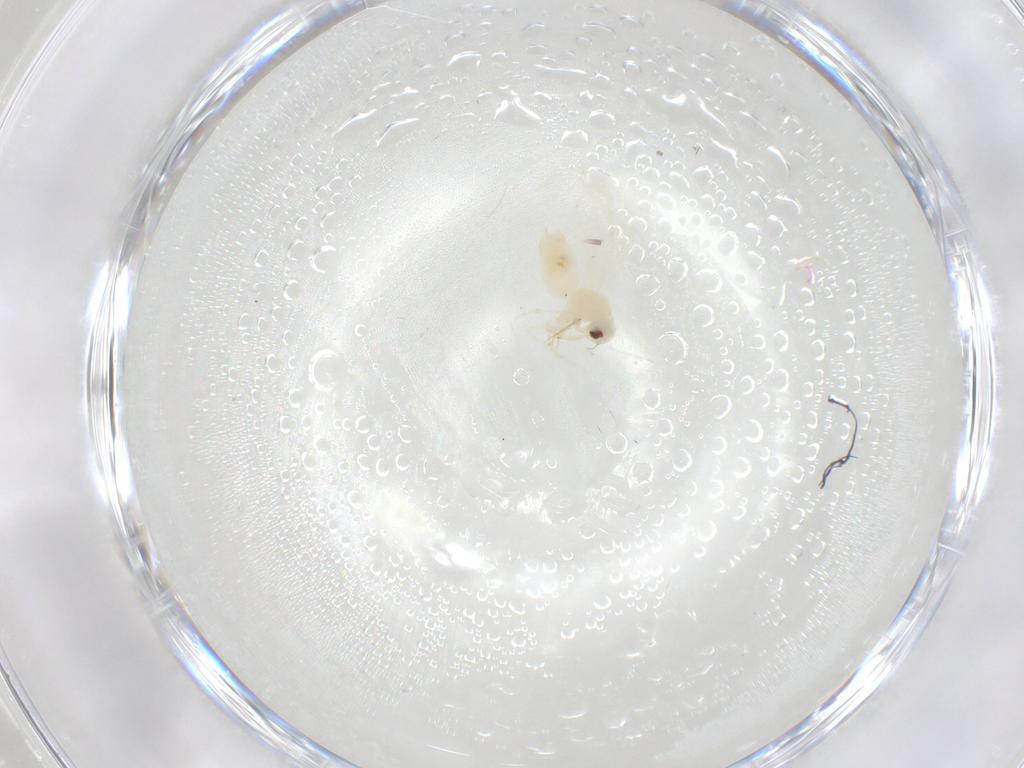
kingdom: Animalia
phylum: Arthropoda
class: Insecta
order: Hemiptera
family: Aleyrodidae
